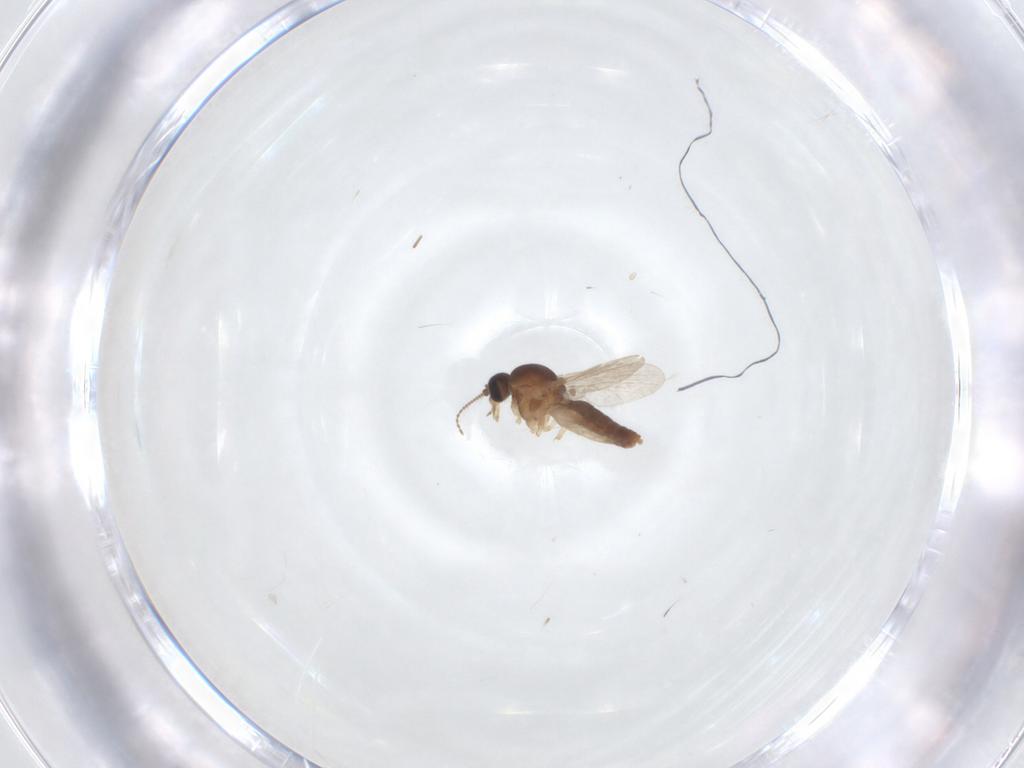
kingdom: Animalia
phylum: Arthropoda
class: Insecta
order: Diptera
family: Ceratopogonidae
